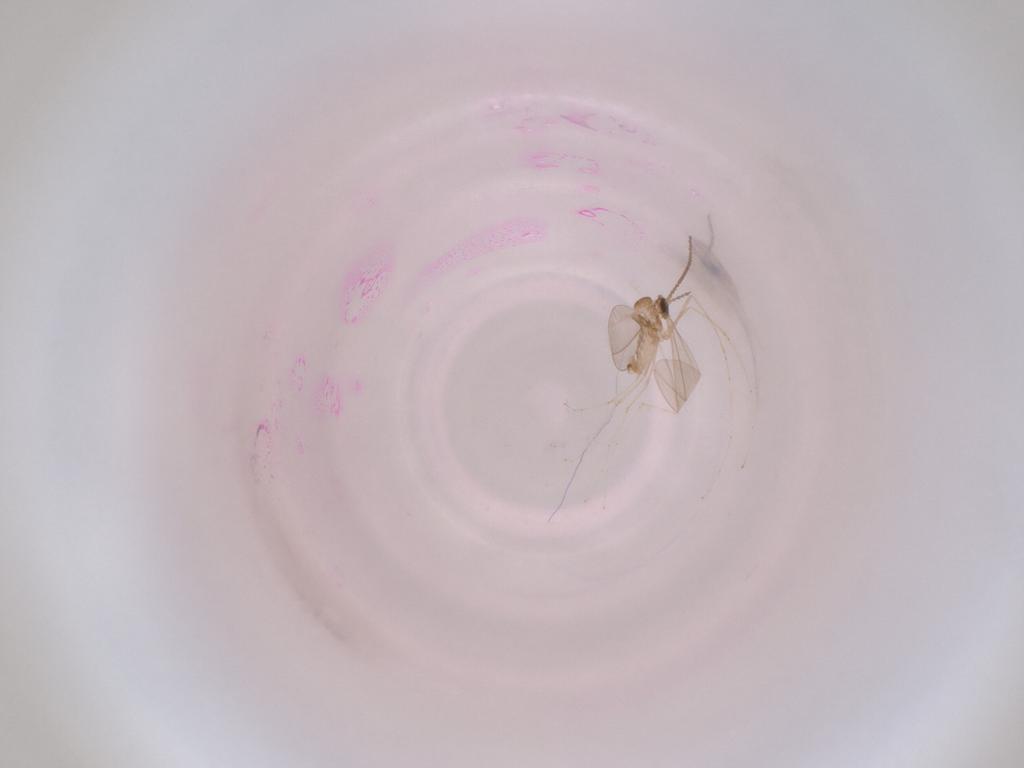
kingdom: Animalia
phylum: Arthropoda
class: Insecta
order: Diptera
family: Cecidomyiidae
